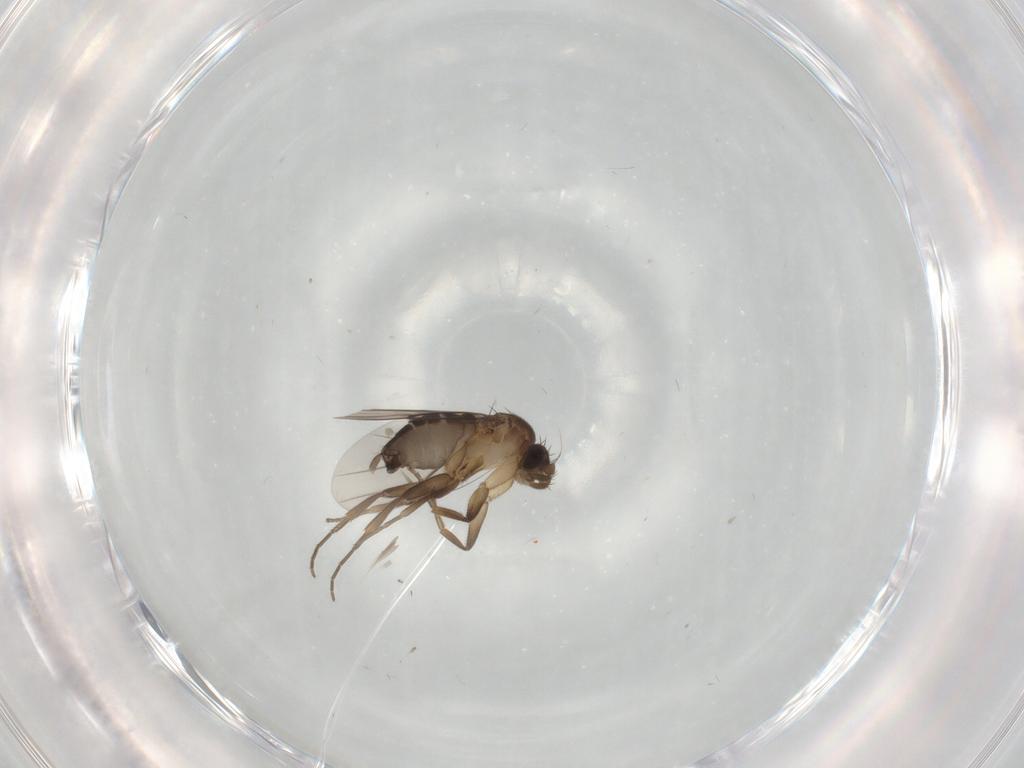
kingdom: Animalia
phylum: Arthropoda
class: Insecta
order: Diptera
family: Phoridae
